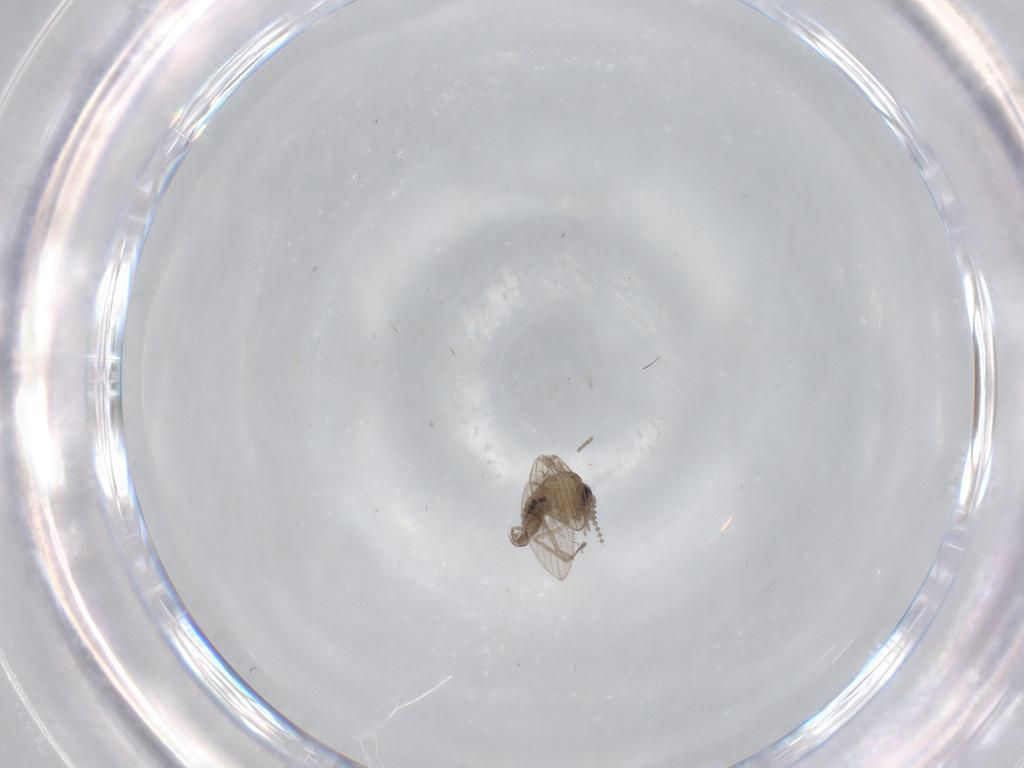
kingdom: Animalia
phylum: Arthropoda
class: Insecta
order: Diptera
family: Psychodidae
